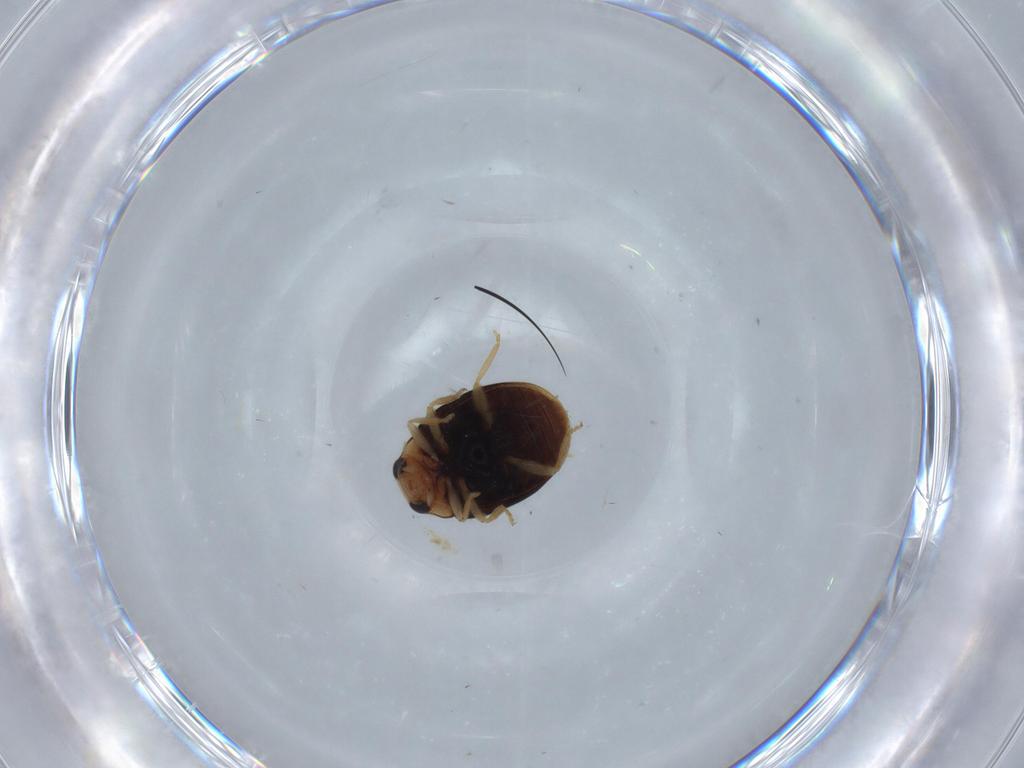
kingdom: Animalia
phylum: Arthropoda
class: Insecta
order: Coleoptera
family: Coccinellidae
